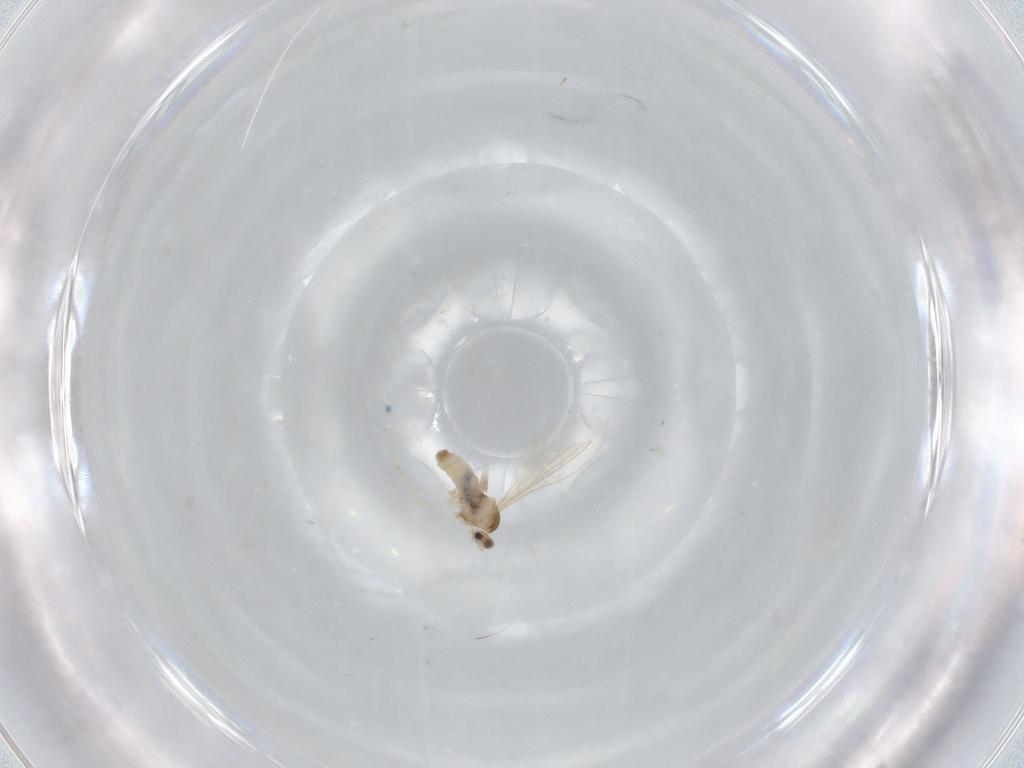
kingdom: Animalia
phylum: Arthropoda
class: Insecta
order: Diptera
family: Cecidomyiidae
